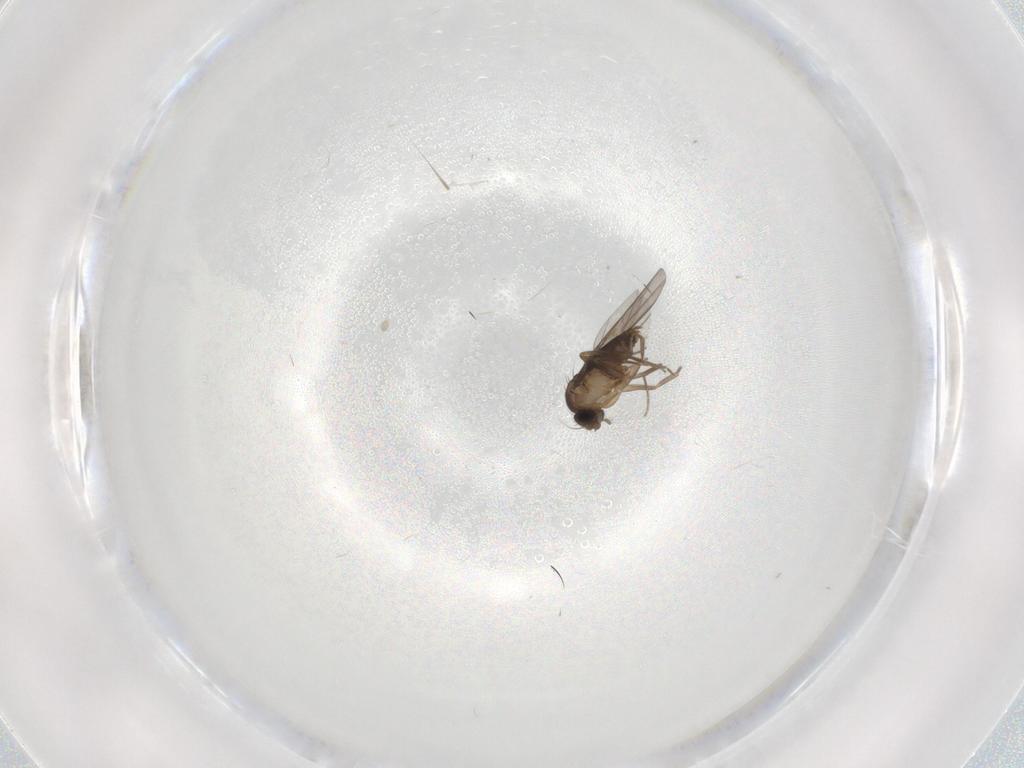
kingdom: Animalia
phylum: Arthropoda
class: Insecta
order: Diptera
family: Phoridae
